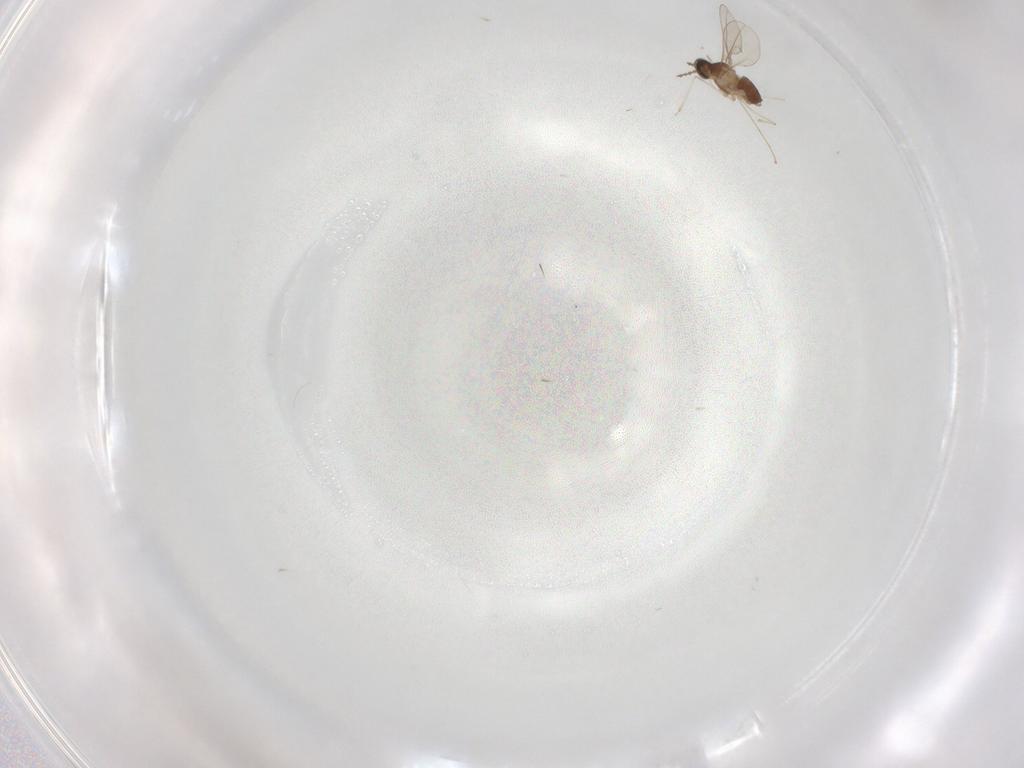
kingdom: Animalia
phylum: Arthropoda
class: Insecta
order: Diptera
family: Cecidomyiidae
